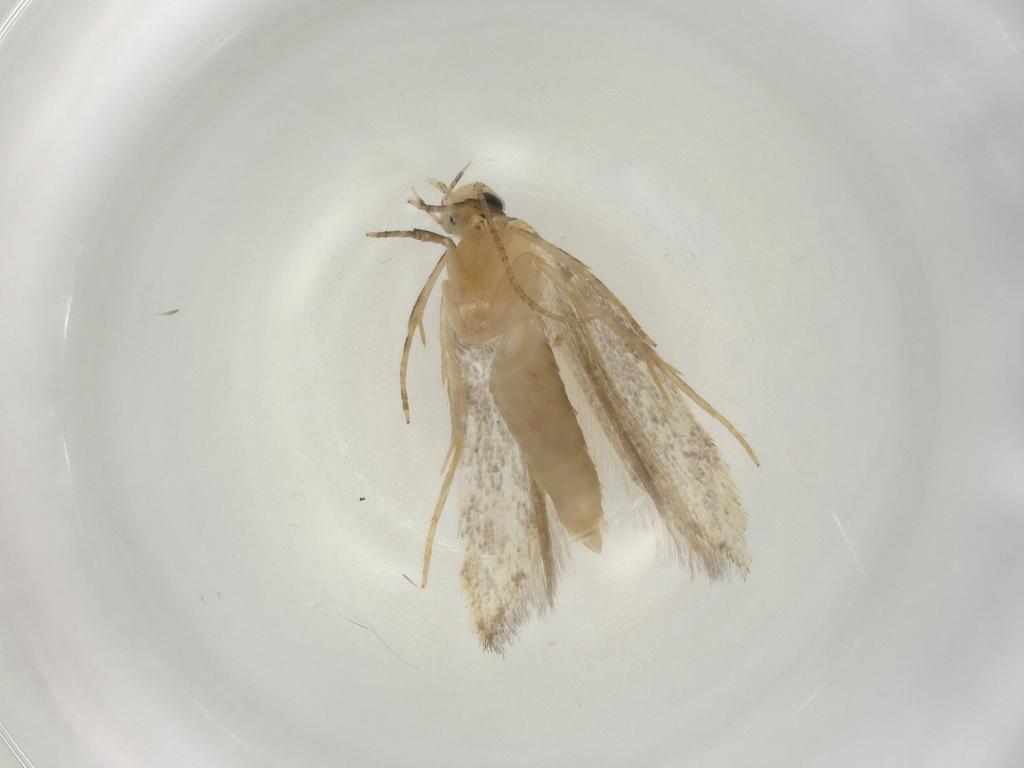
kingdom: Animalia
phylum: Arthropoda
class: Insecta
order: Lepidoptera
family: Autostichidae
